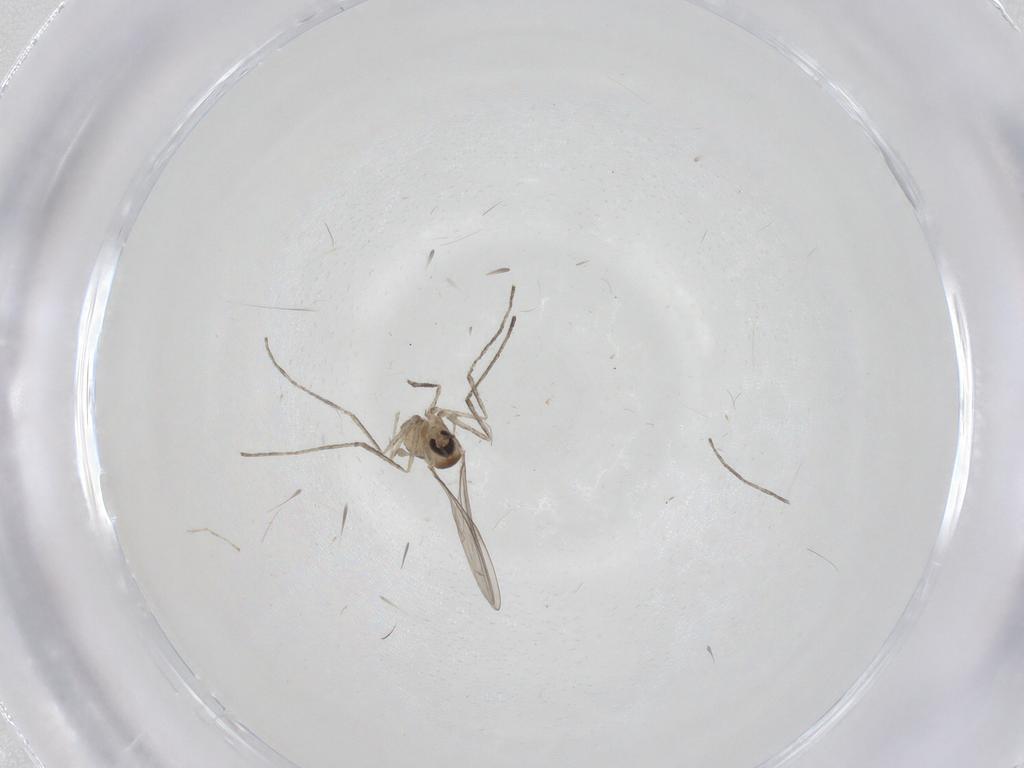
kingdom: Animalia
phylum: Arthropoda
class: Insecta
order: Diptera
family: Cecidomyiidae
